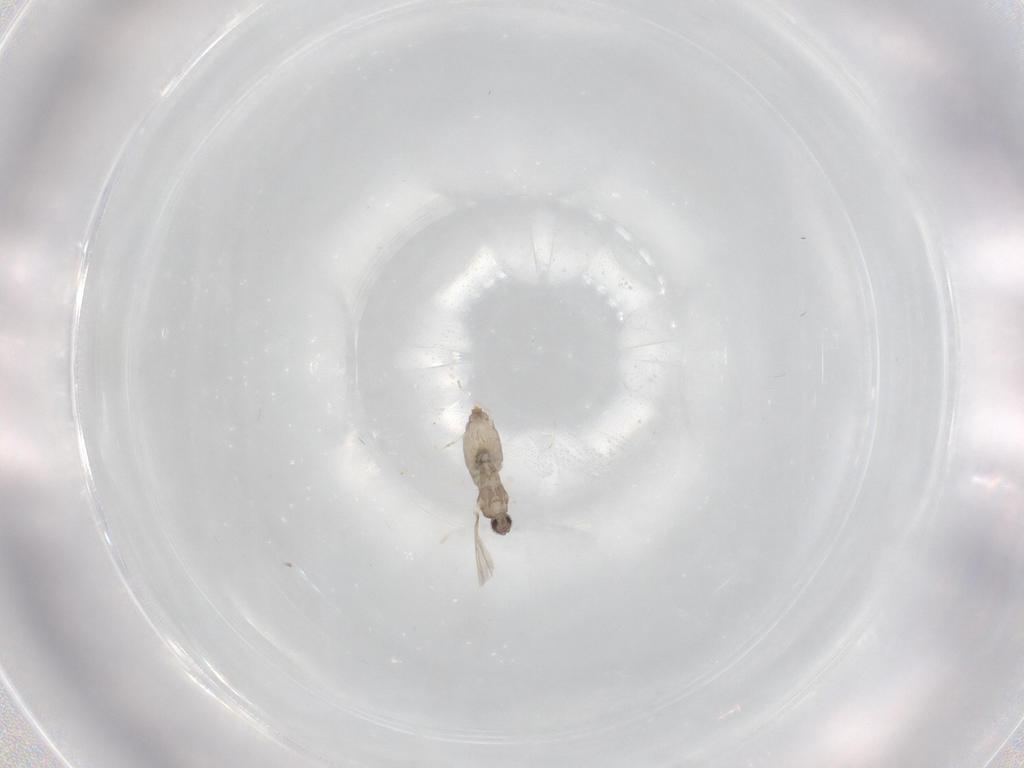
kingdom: Animalia
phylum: Arthropoda
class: Insecta
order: Diptera
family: Cecidomyiidae
